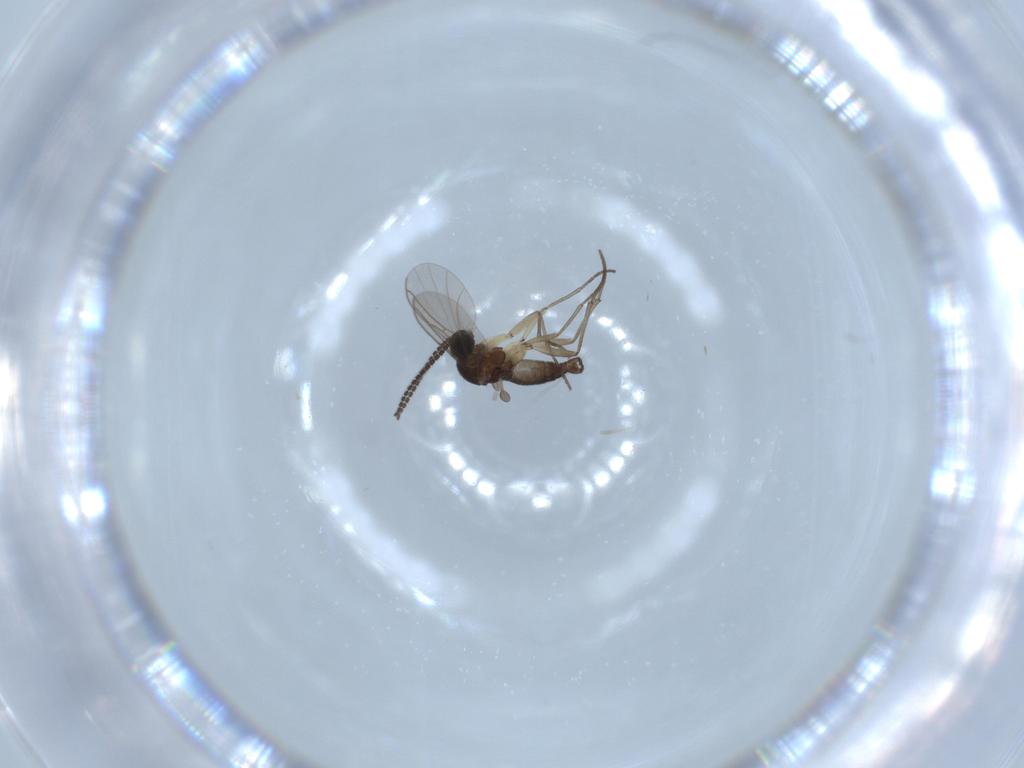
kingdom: Animalia
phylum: Arthropoda
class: Insecta
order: Diptera
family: Sciaridae
